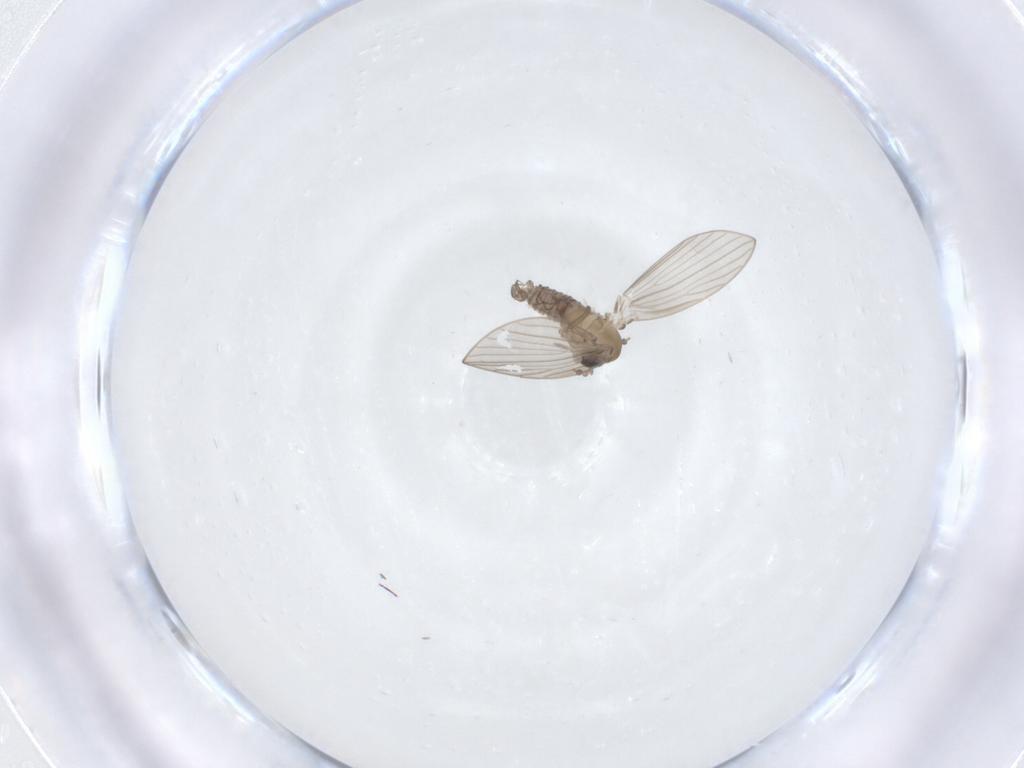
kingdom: Animalia
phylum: Arthropoda
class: Insecta
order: Diptera
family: Psychodidae
